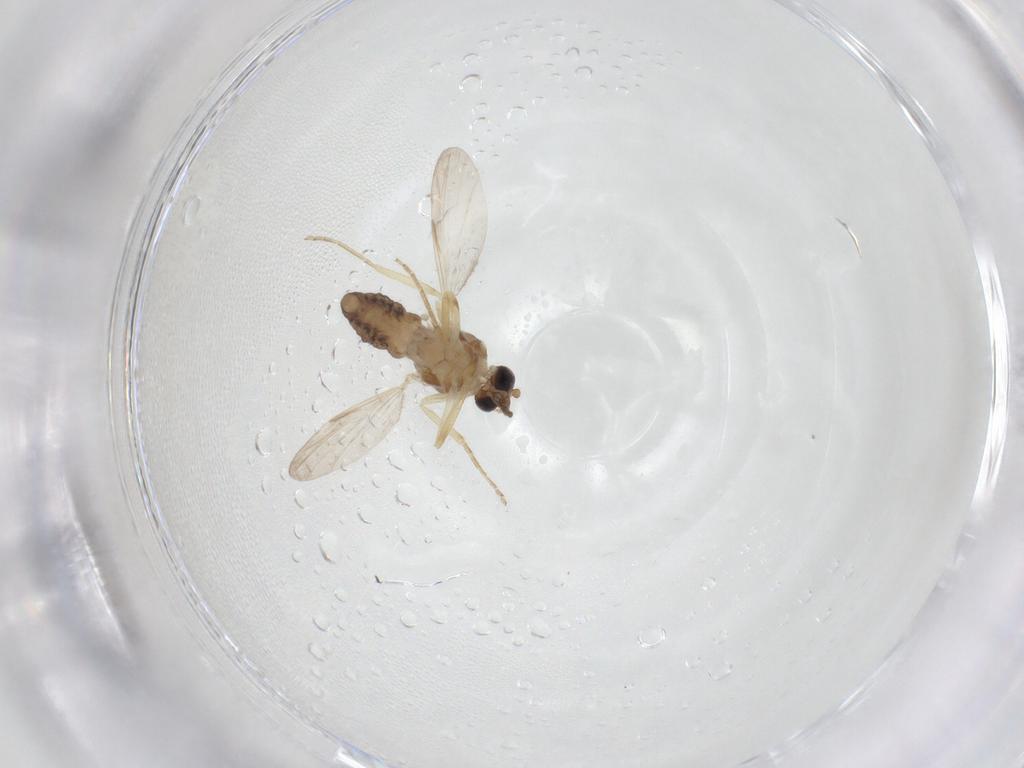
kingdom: Animalia
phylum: Arthropoda
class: Insecta
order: Diptera
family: Ceratopogonidae
